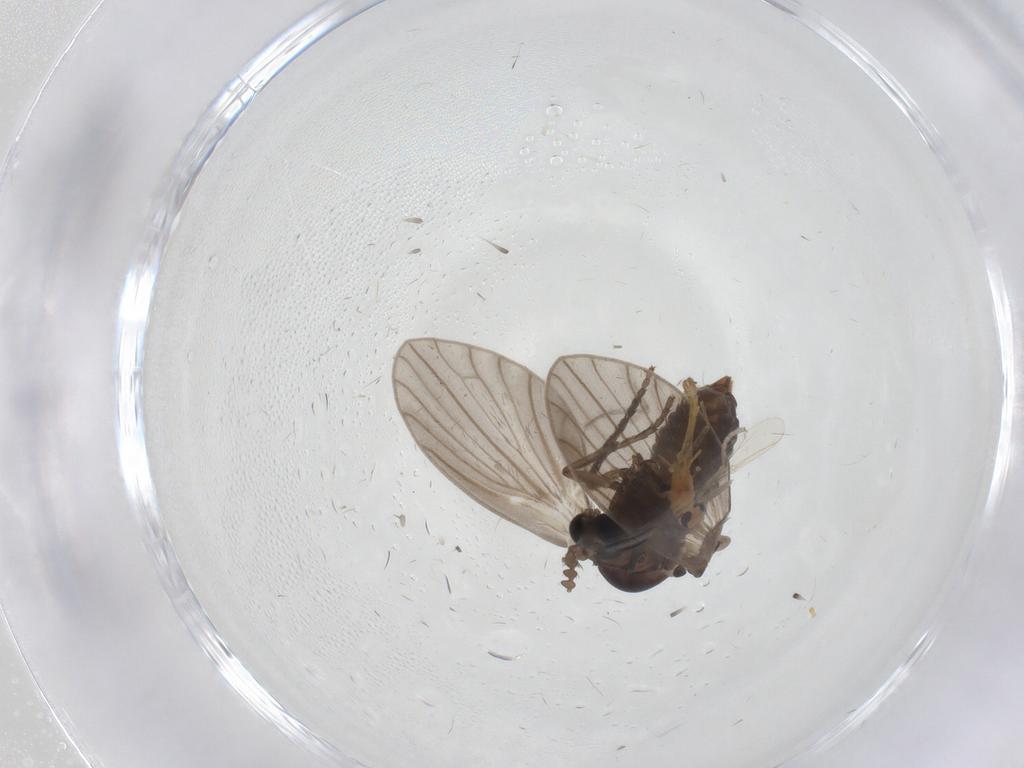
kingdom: Animalia
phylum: Arthropoda
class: Insecta
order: Diptera
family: Psychodidae
